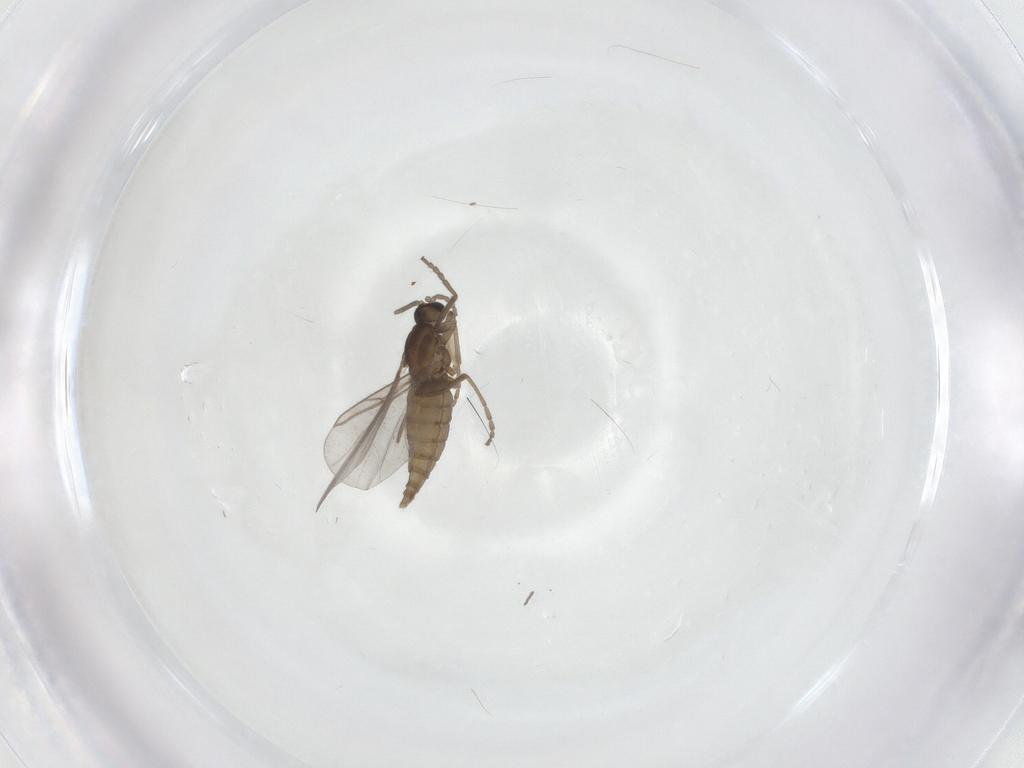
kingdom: Animalia
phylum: Arthropoda
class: Insecta
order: Diptera
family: Cecidomyiidae
